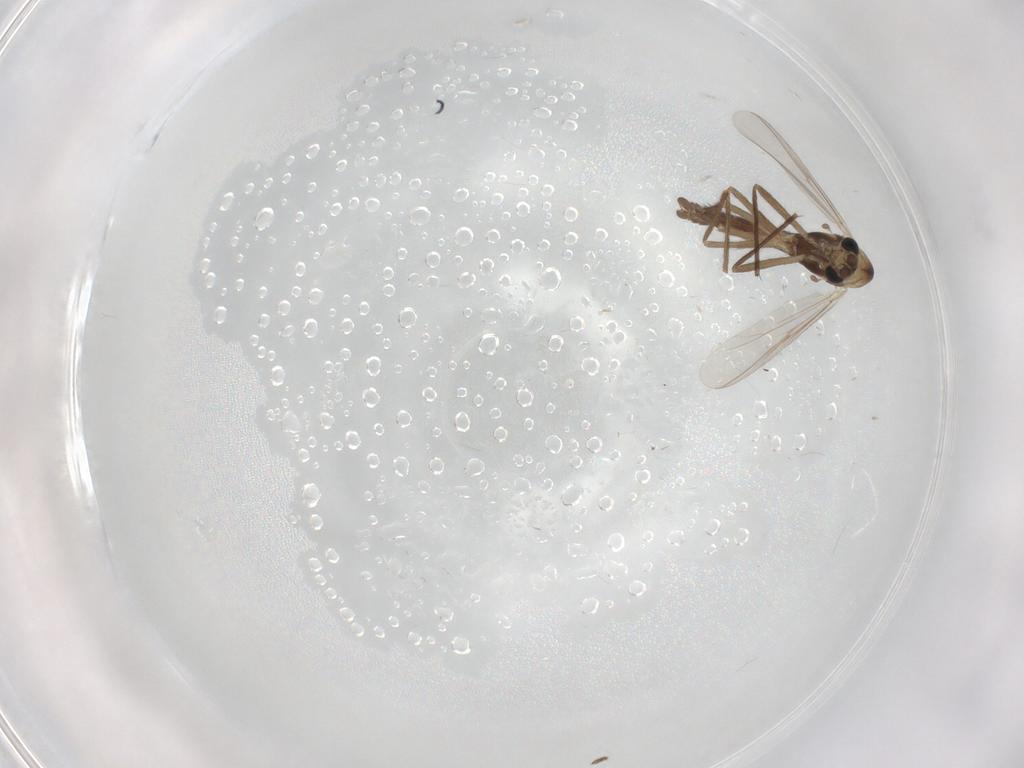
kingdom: Animalia
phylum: Arthropoda
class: Insecta
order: Diptera
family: Chironomidae
